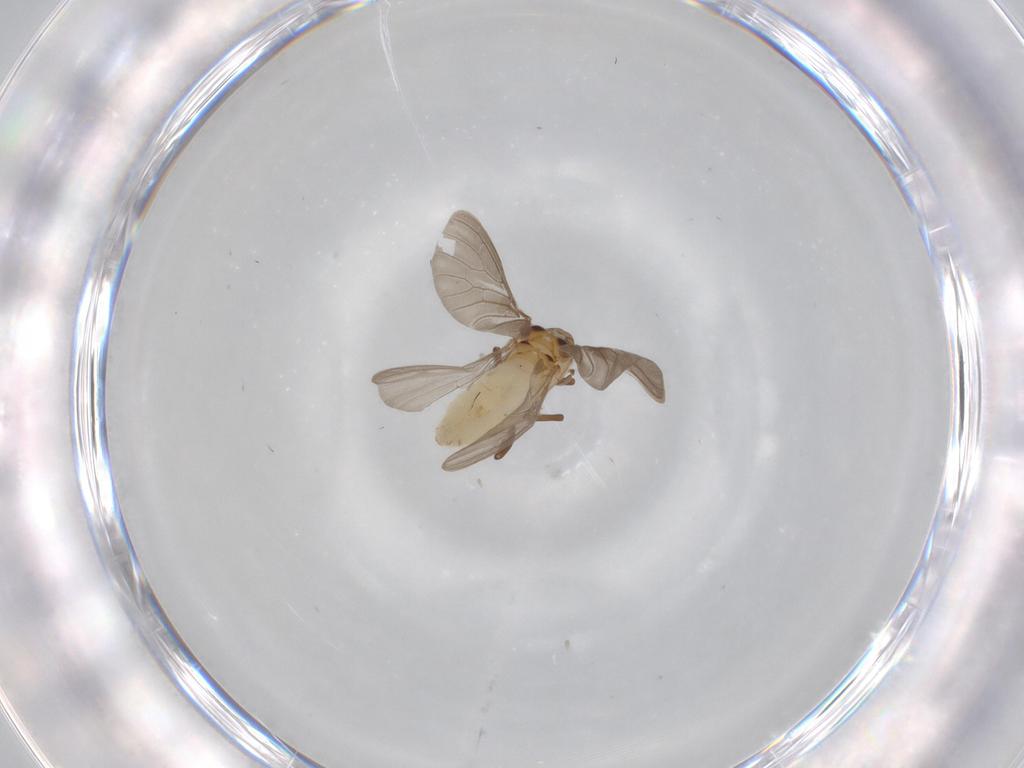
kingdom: Animalia
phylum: Arthropoda
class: Insecta
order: Neuroptera
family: Coniopterygidae
